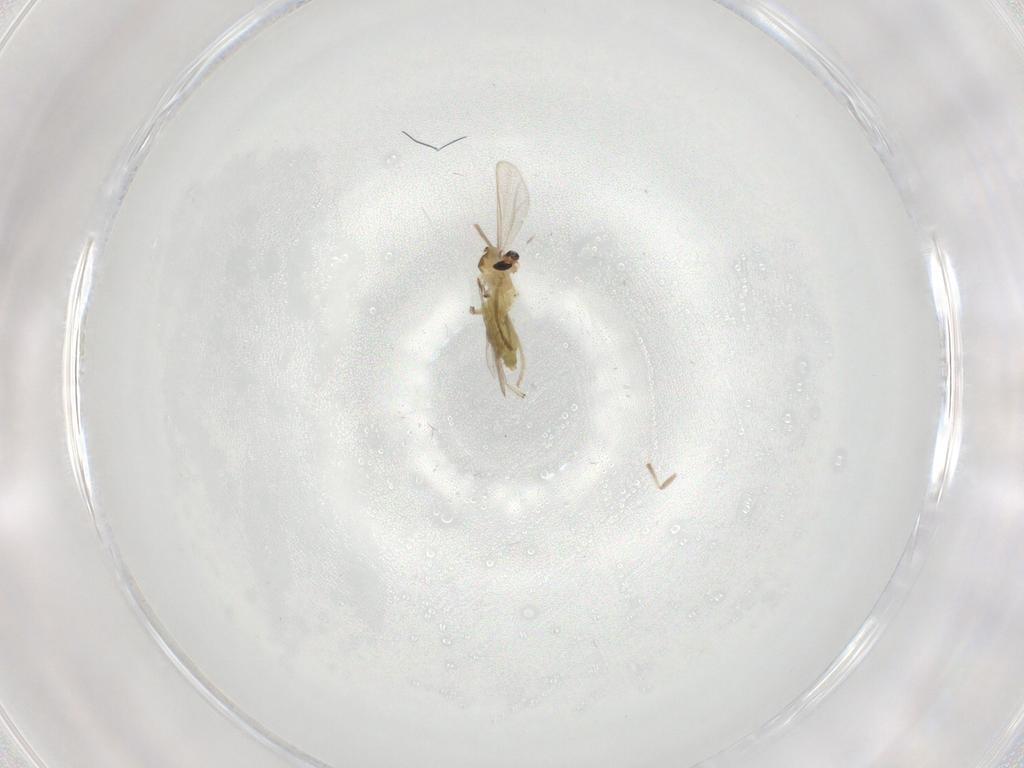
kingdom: Animalia
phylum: Arthropoda
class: Insecta
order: Diptera
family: Chironomidae
